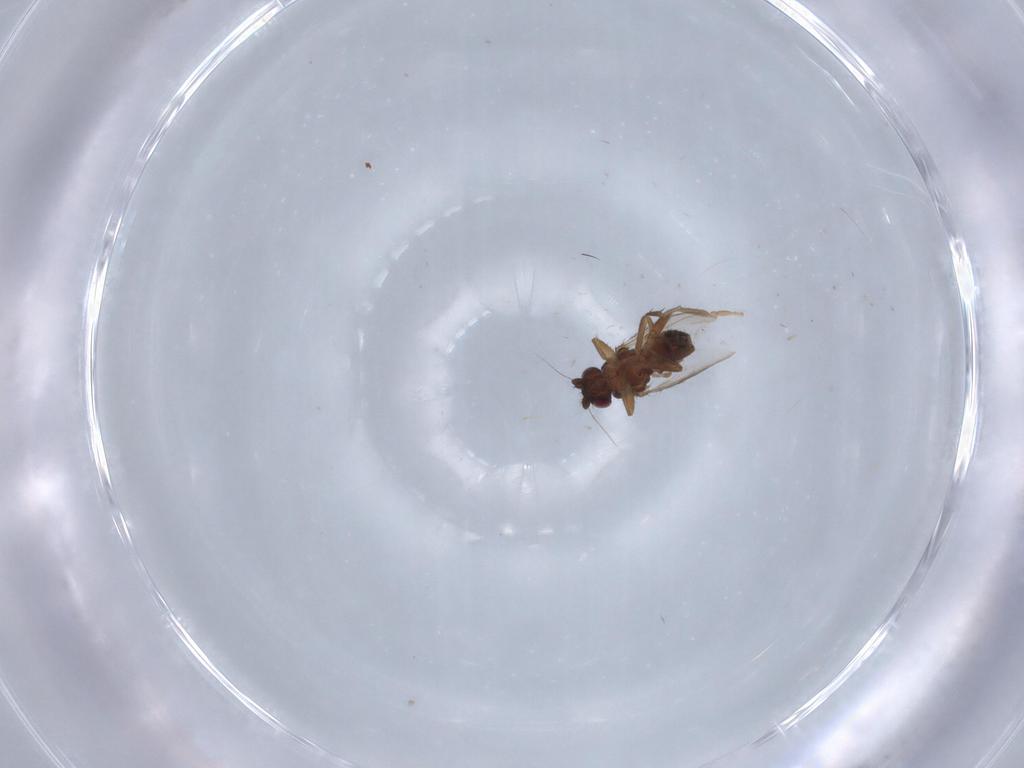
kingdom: Animalia
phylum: Arthropoda
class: Insecta
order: Diptera
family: Sphaeroceridae
